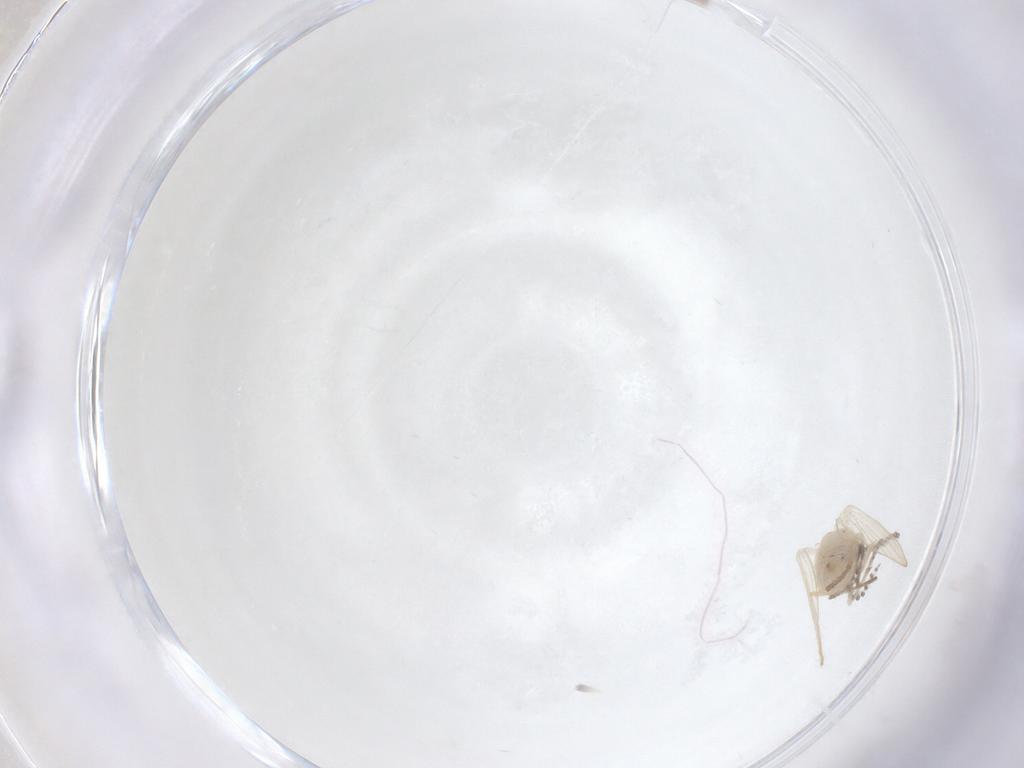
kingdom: Animalia
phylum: Arthropoda
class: Insecta
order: Diptera
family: Cecidomyiidae
